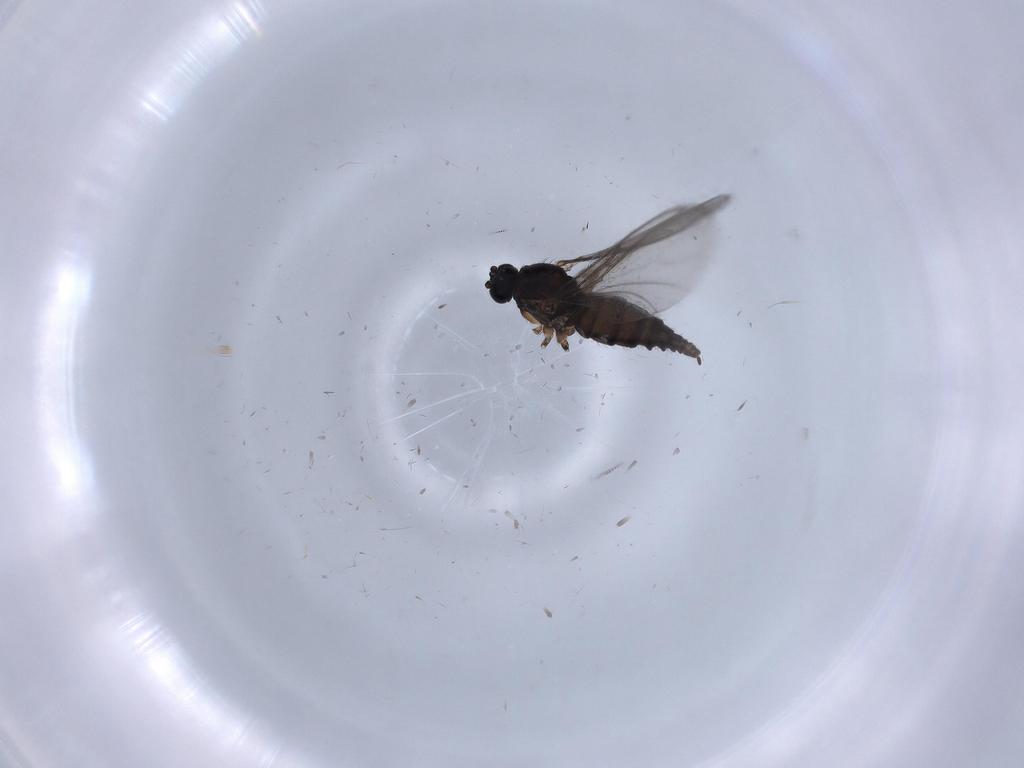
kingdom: Animalia
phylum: Arthropoda
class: Insecta
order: Diptera
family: Sciaridae
